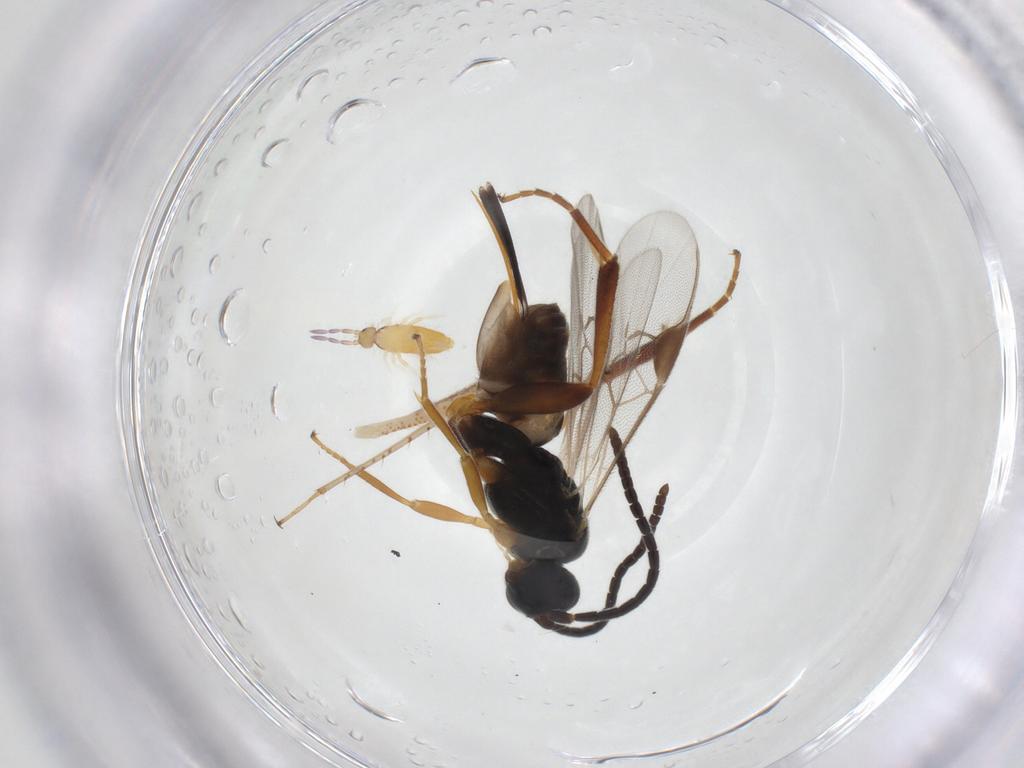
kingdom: Animalia
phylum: Arthropoda
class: Insecta
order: Hymenoptera
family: Braconidae
